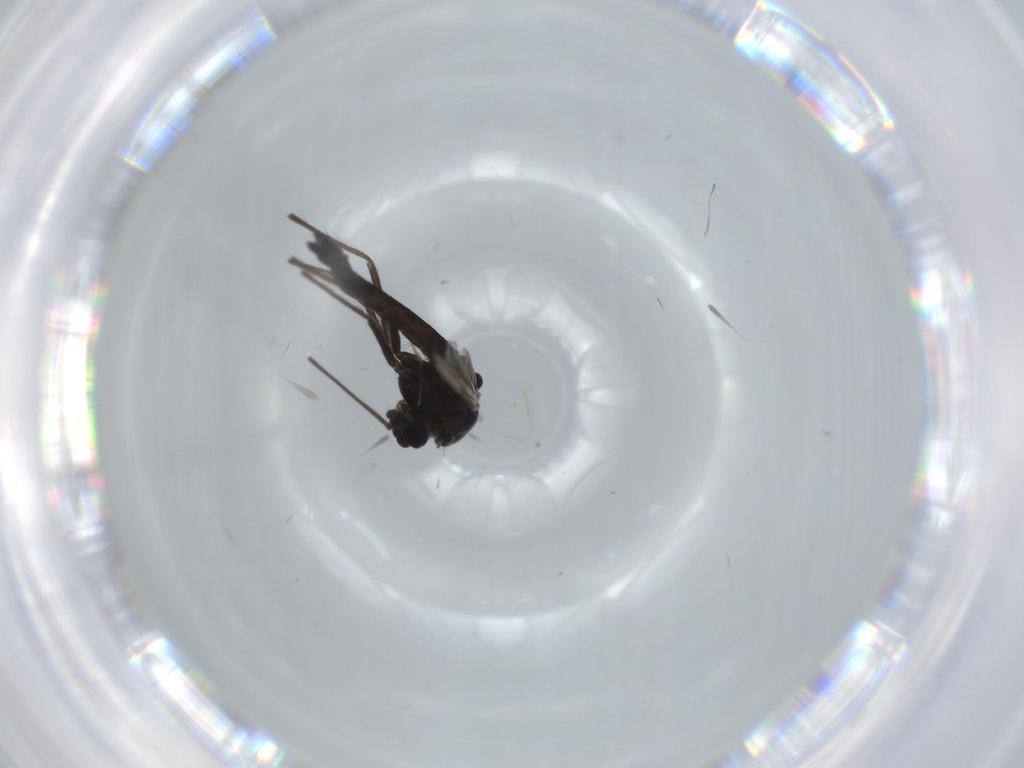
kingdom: Animalia
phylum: Arthropoda
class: Insecta
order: Diptera
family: Chironomidae
